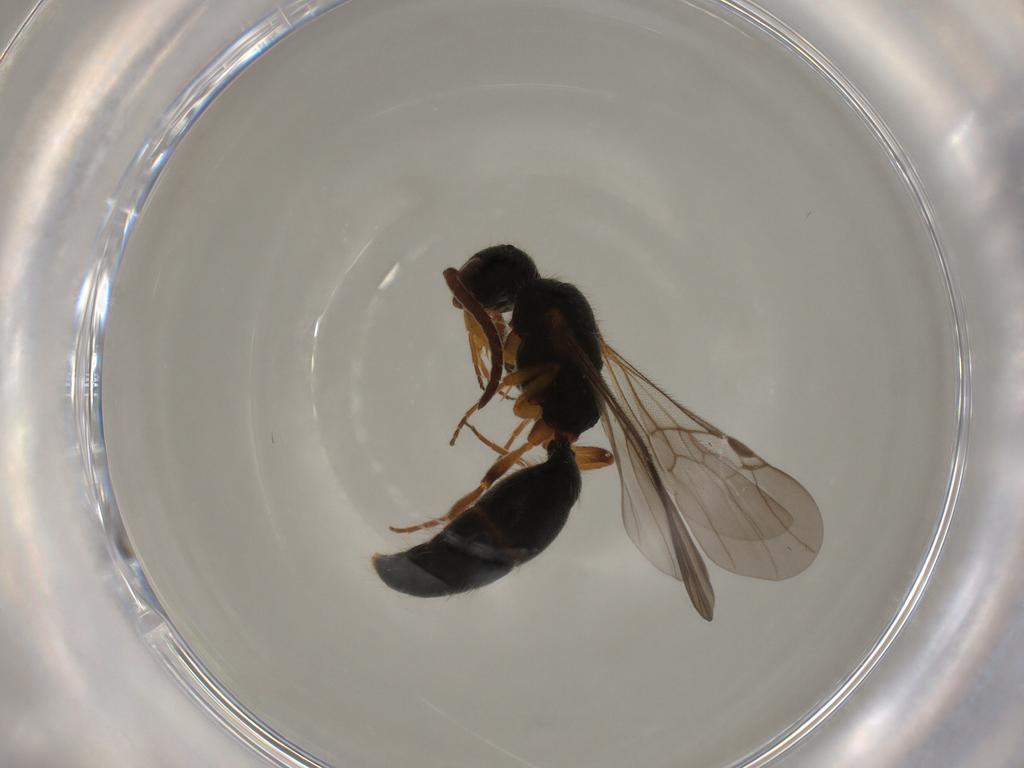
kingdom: Animalia
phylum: Arthropoda
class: Insecta
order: Hymenoptera
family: Mutillidae
